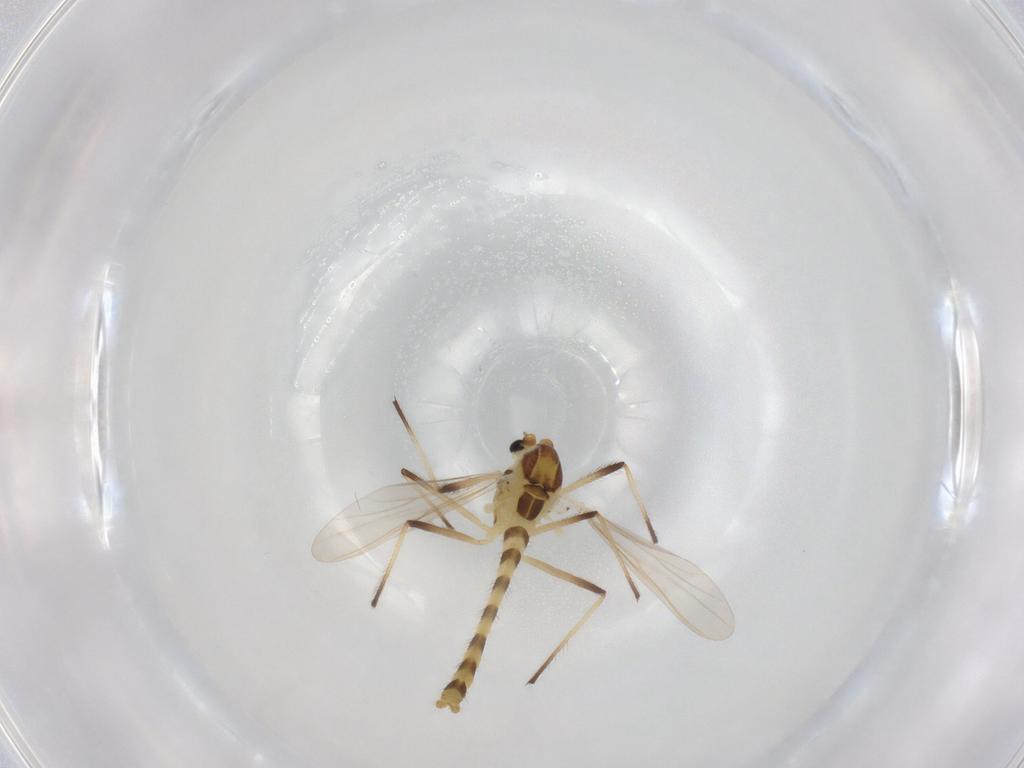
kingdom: Animalia
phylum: Arthropoda
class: Insecta
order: Diptera
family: Chironomidae
